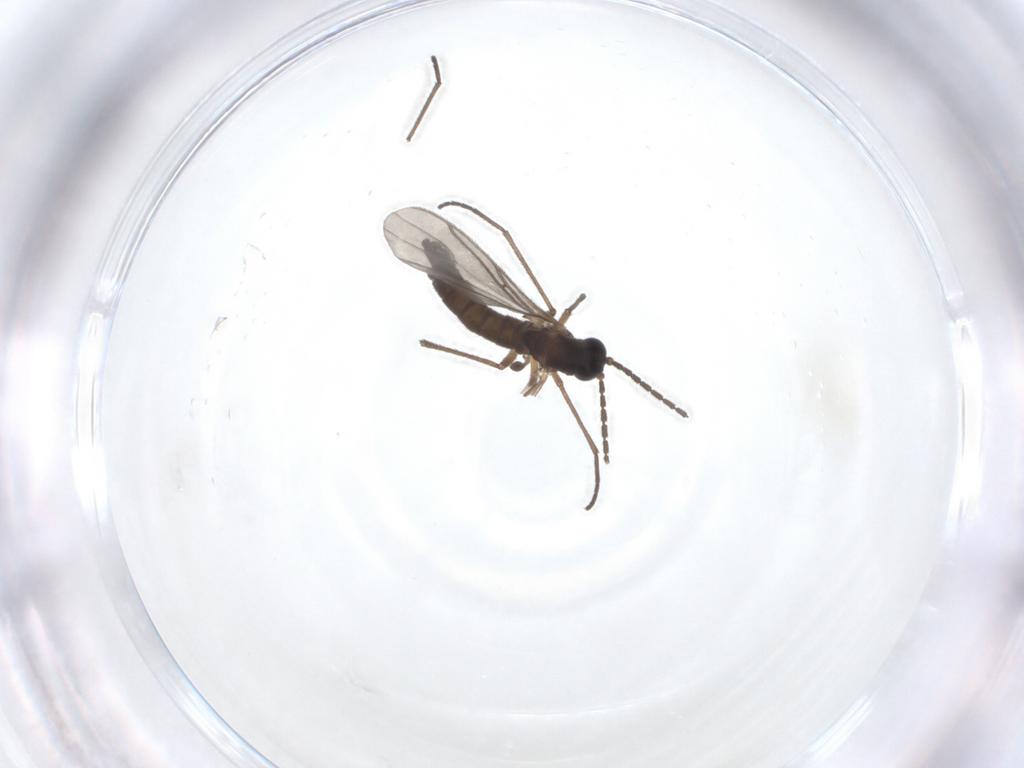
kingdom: Animalia
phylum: Arthropoda
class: Insecta
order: Diptera
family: Sciaridae
